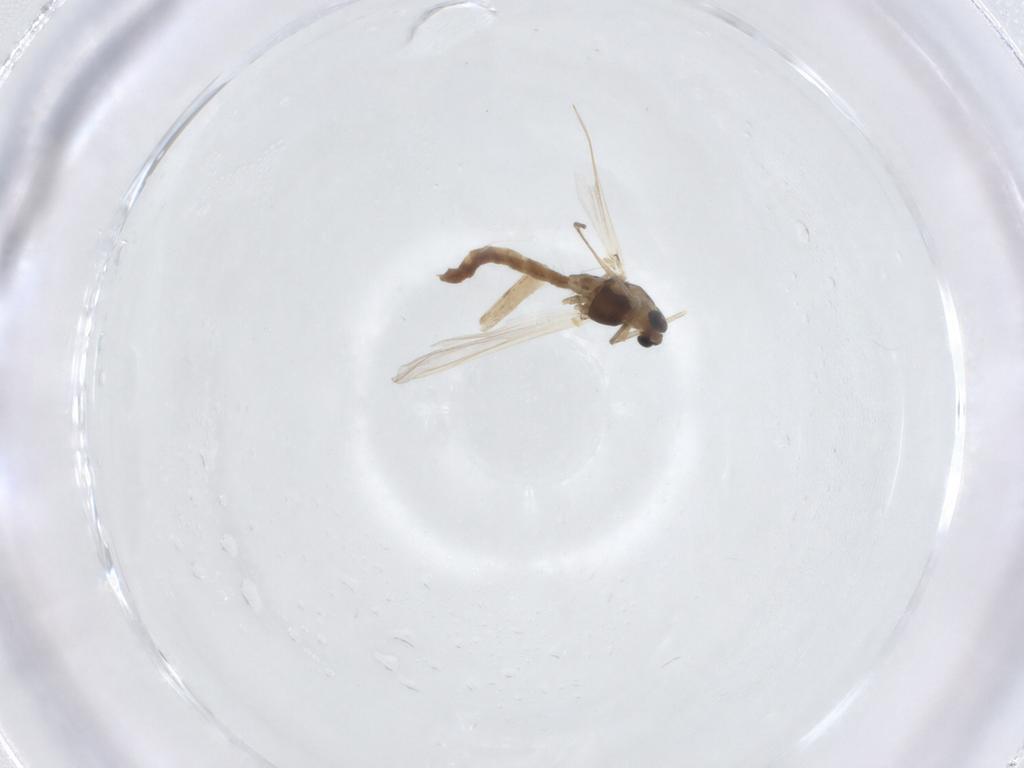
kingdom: Animalia
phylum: Arthropoda
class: Insecta
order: Diptera
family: Chironomidae
